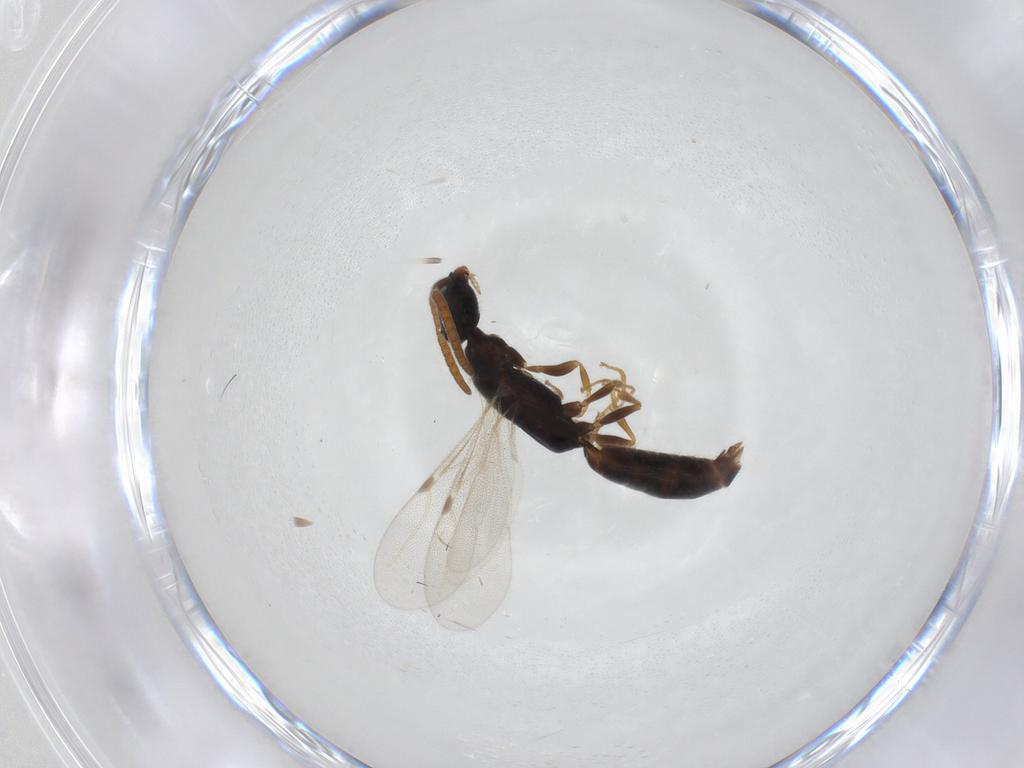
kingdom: Animalia
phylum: Arthropoda
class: Insecta
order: Hymenoptera
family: Bethylidae
